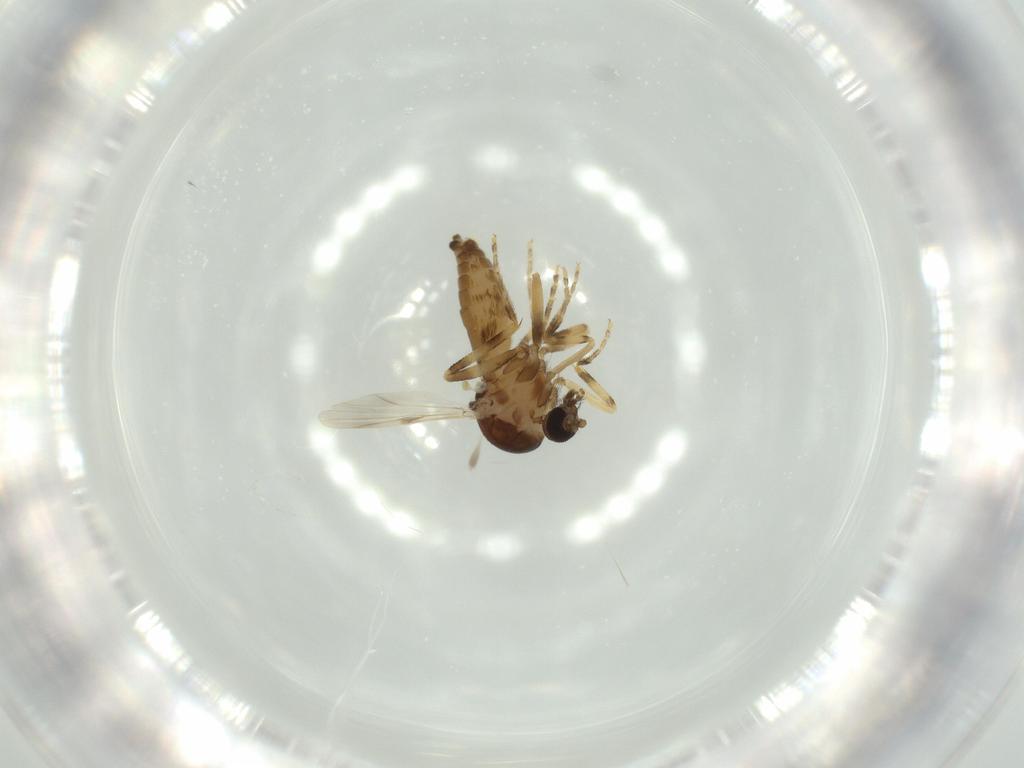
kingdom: Animalia
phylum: Arthropoda
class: Insecta
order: Diptera
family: Ceratopogonidae
